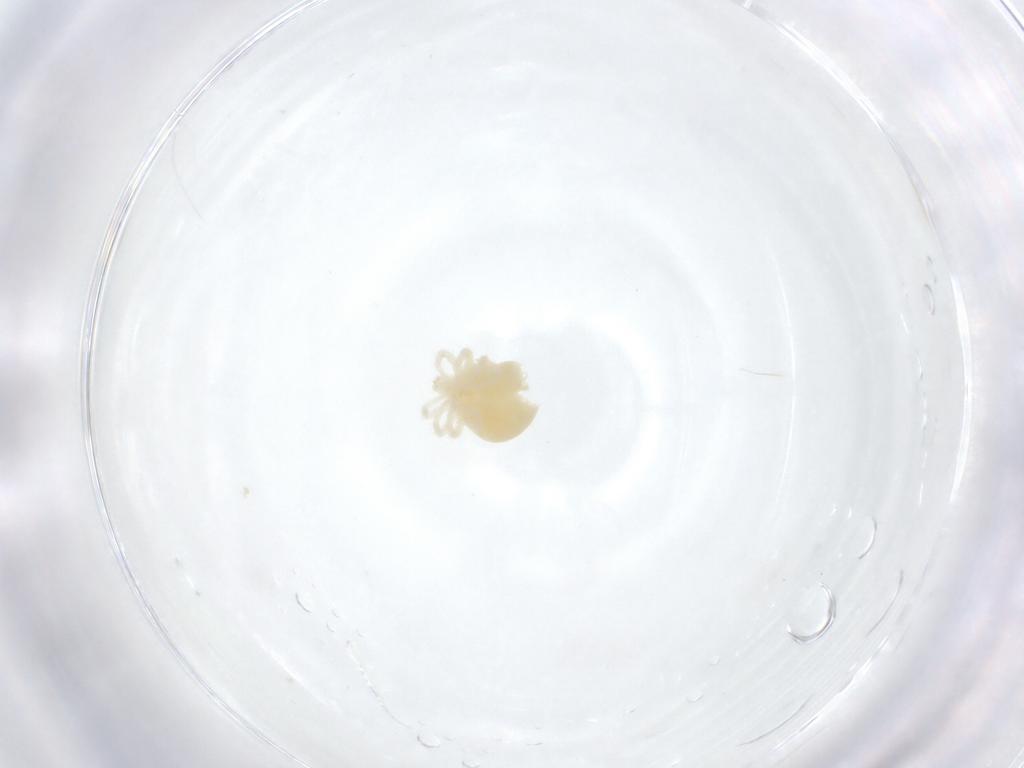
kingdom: Animalia
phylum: Arthropoda
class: Arachnida
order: Trombidiformes
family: Anystidae
